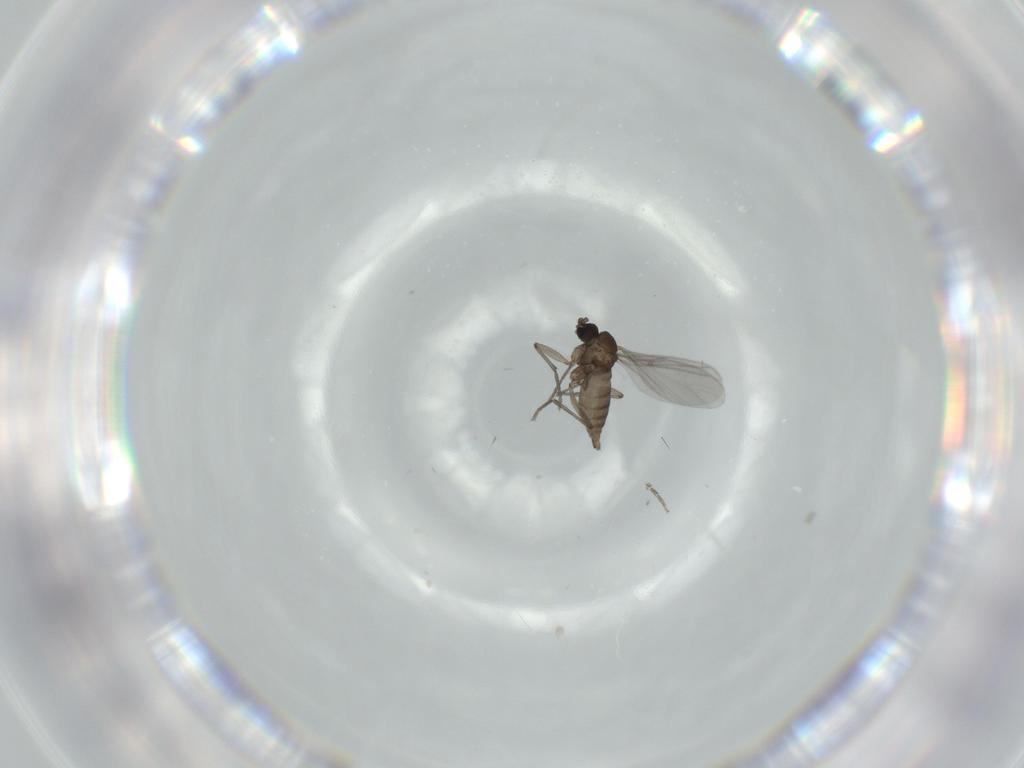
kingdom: Animalia
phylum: Arthropoda
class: Insecta
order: Diptera
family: Sciaridae
